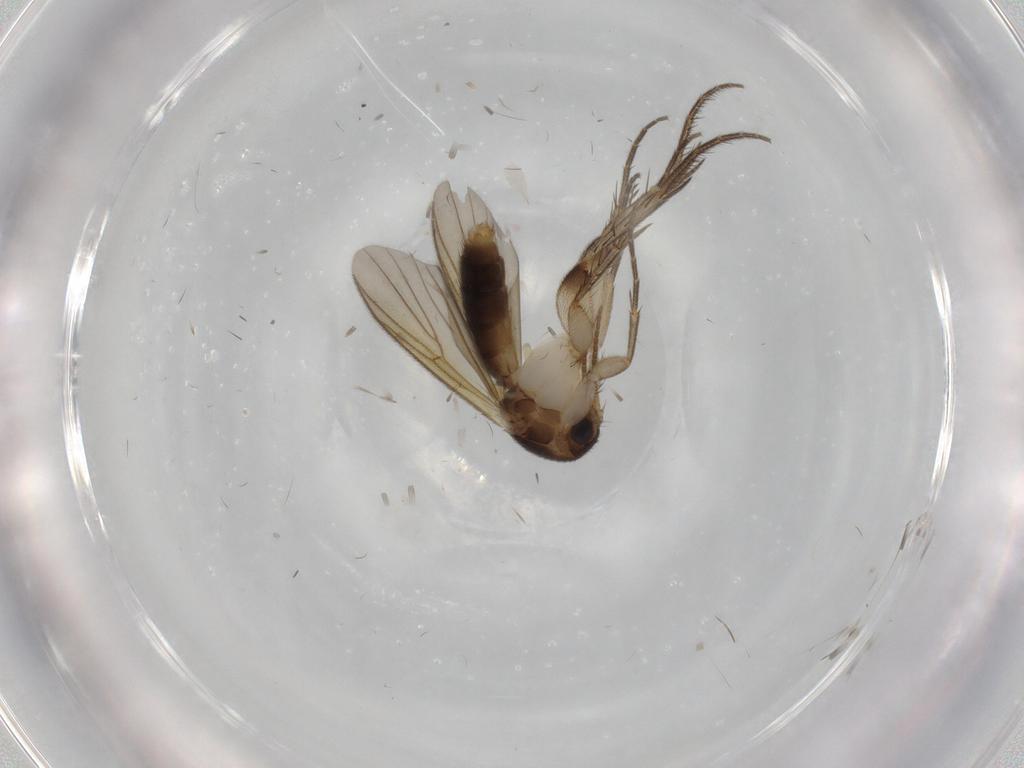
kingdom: Animalia
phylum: Arthropoda
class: Insecta
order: Diptera
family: Mycetophilidae
